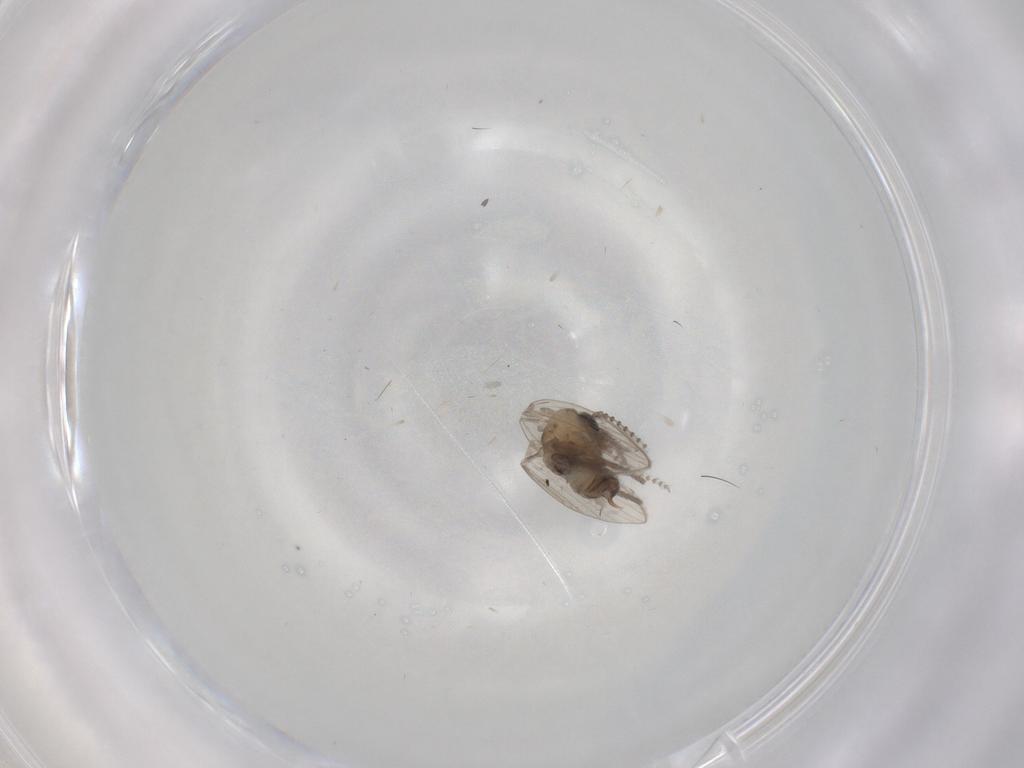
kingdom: Animalia
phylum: Arthropoda
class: Insecta
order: Diptera
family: Psychodidae
